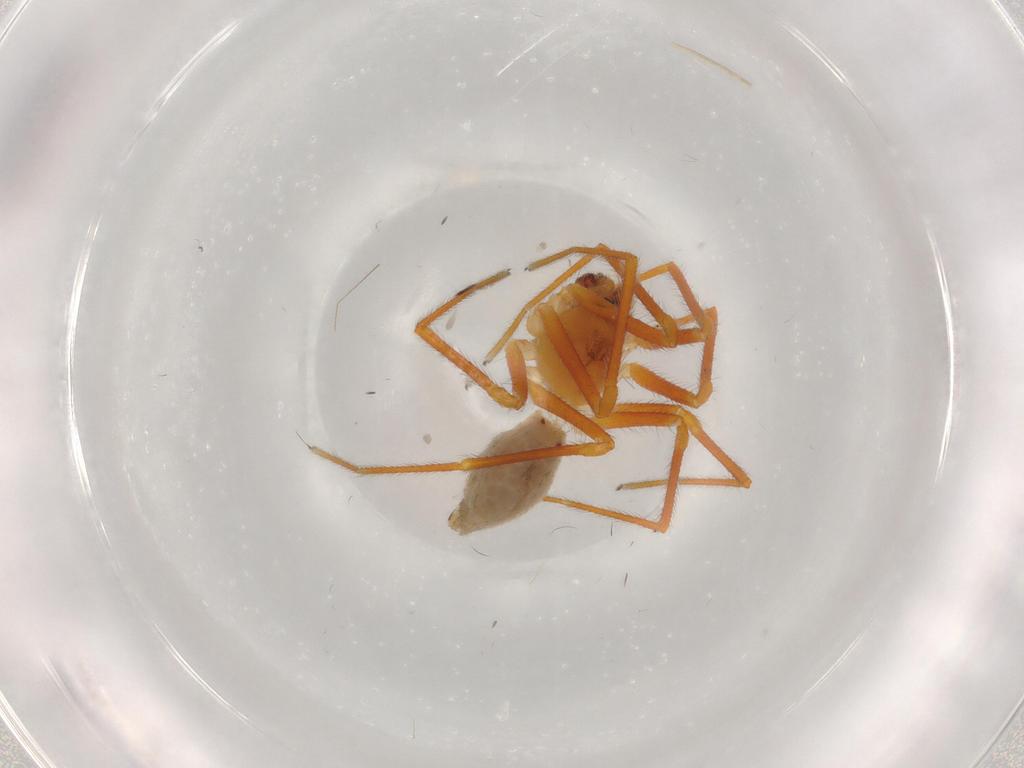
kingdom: Animalia
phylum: Arthropoda
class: Arachnida
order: Araneae
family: Linyphiidae
